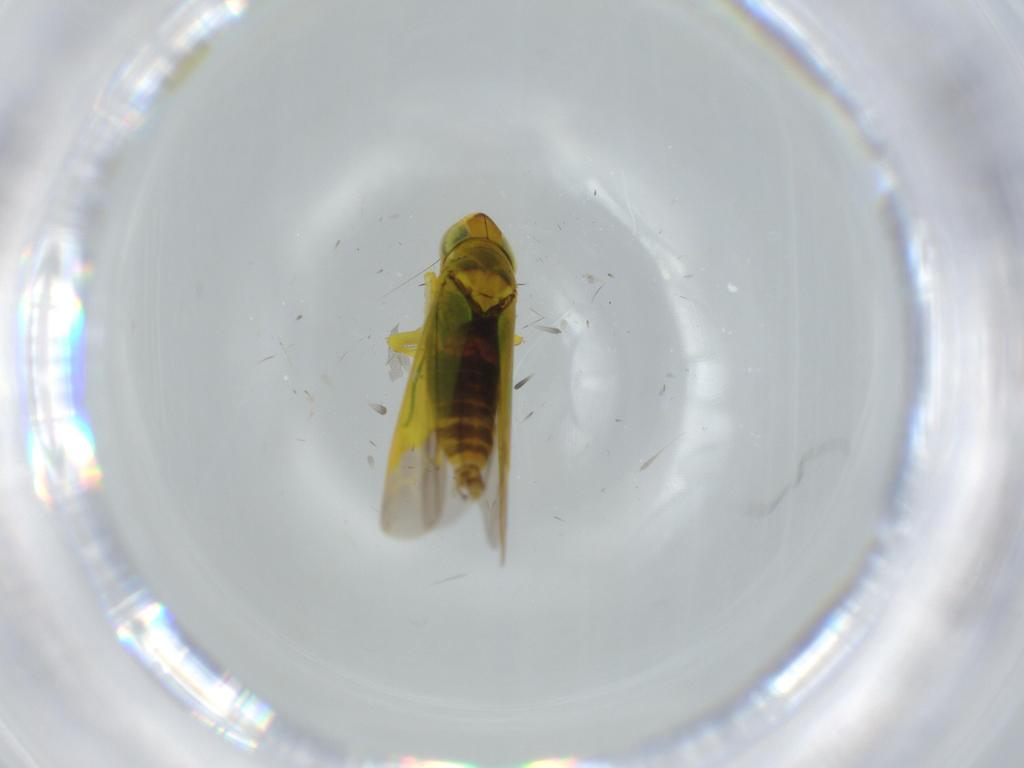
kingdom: Animalia
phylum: Arthropoda
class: Insecta
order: Hemiptera
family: Cicadellidae
